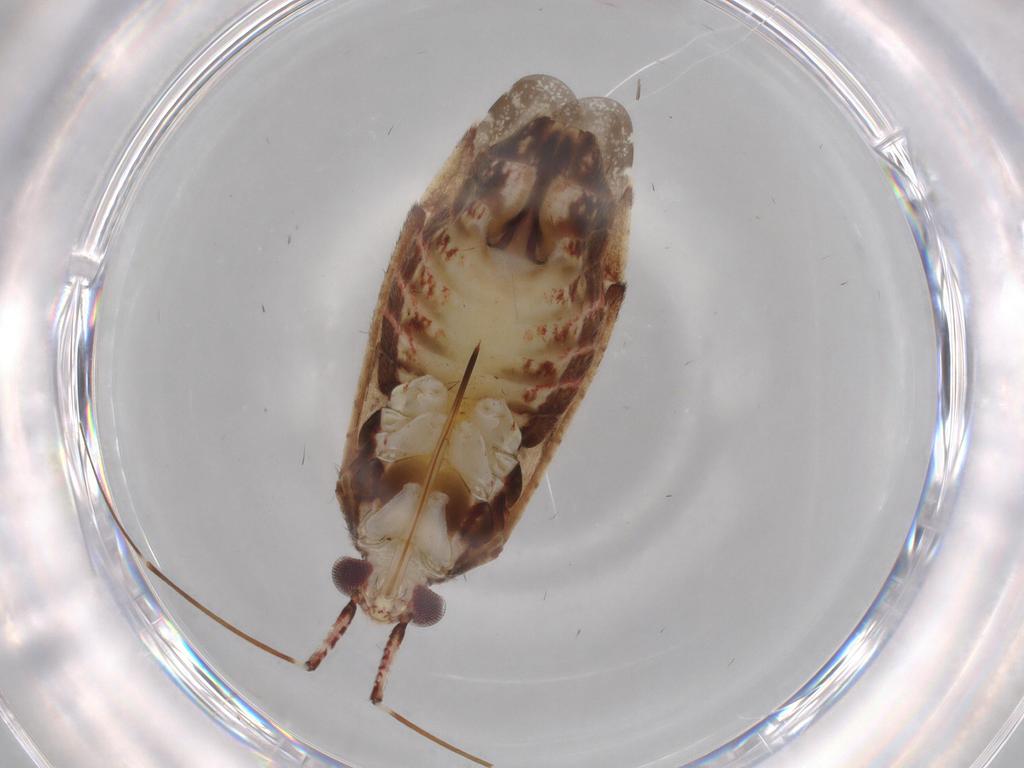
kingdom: Animalia
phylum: Arthropoda
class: Insecta
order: Hemiptera
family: Miridae
